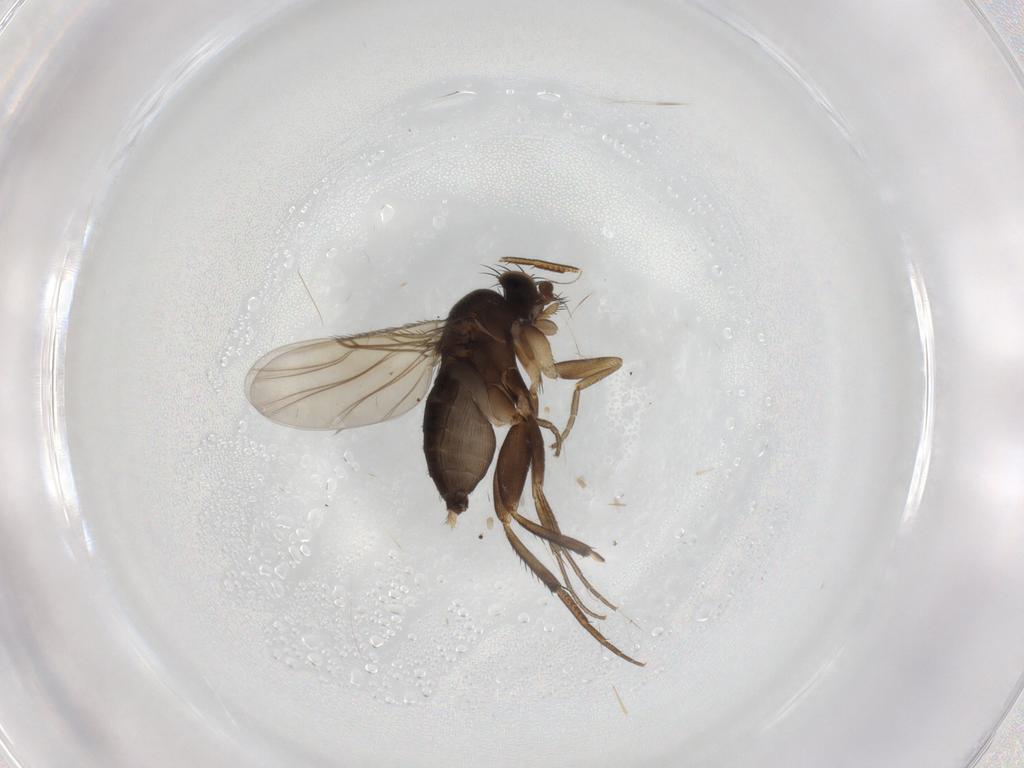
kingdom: Animalia
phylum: Arthropoda
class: Insecta
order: Diptera
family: Phoridae
